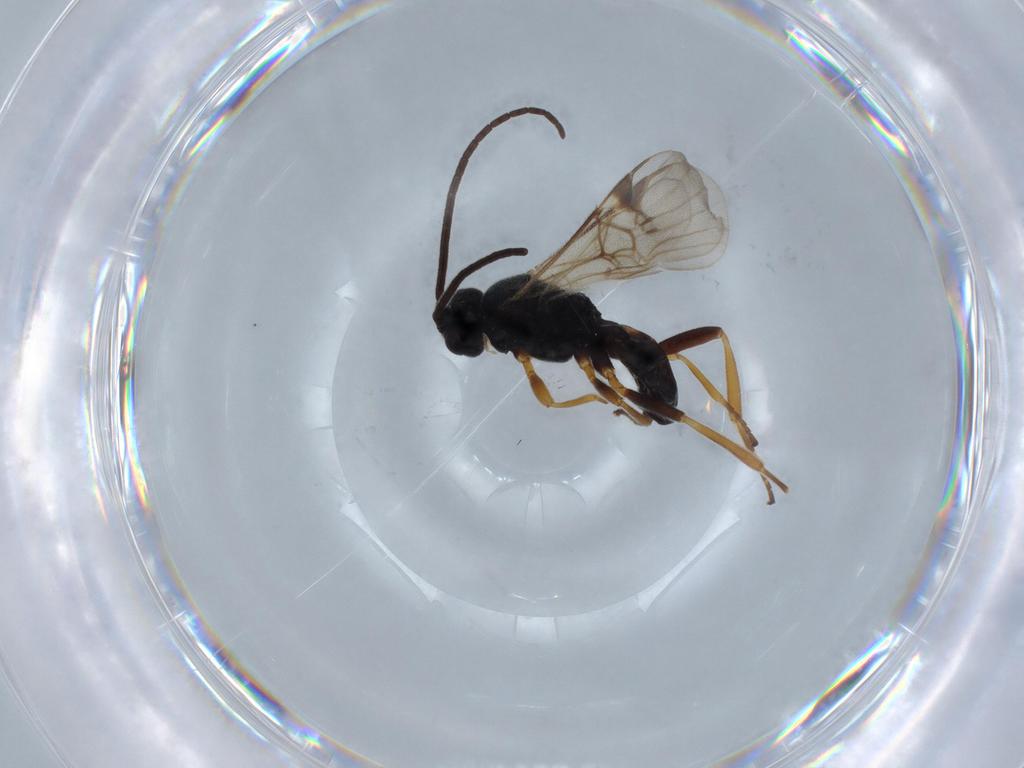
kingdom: Animalia
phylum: Arthropoda
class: Insecta
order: Hymenoptera
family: Braconidae
